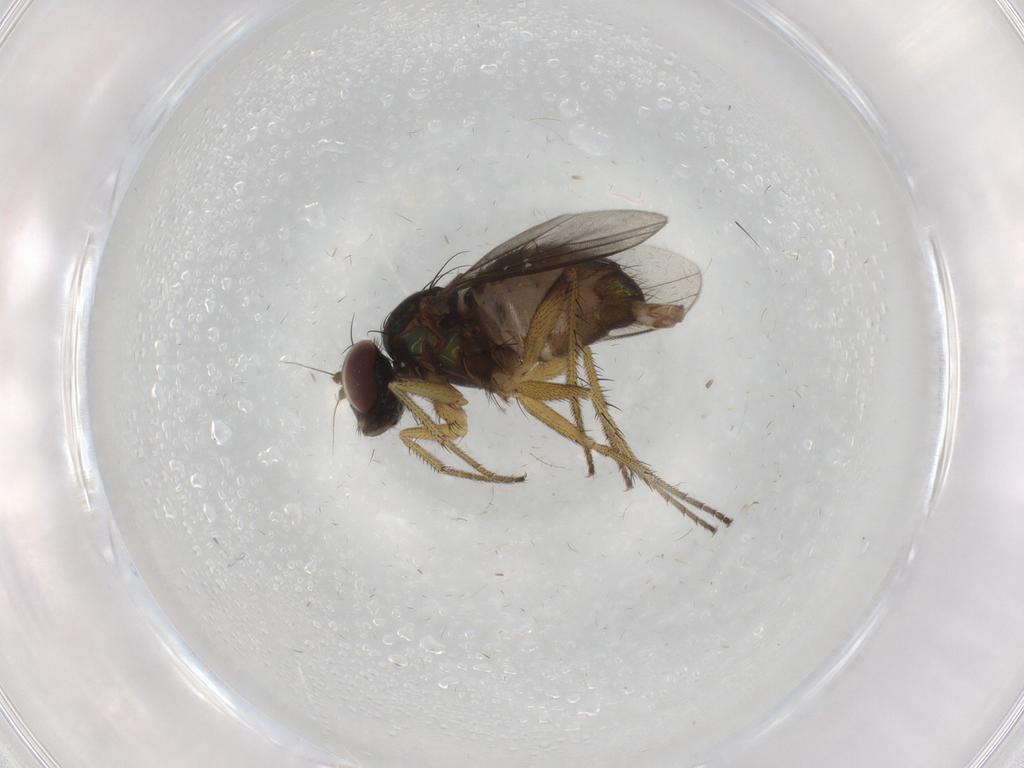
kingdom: Animalia
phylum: Arthropoda
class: Insecta
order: Diptera
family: Dolichopodidae
